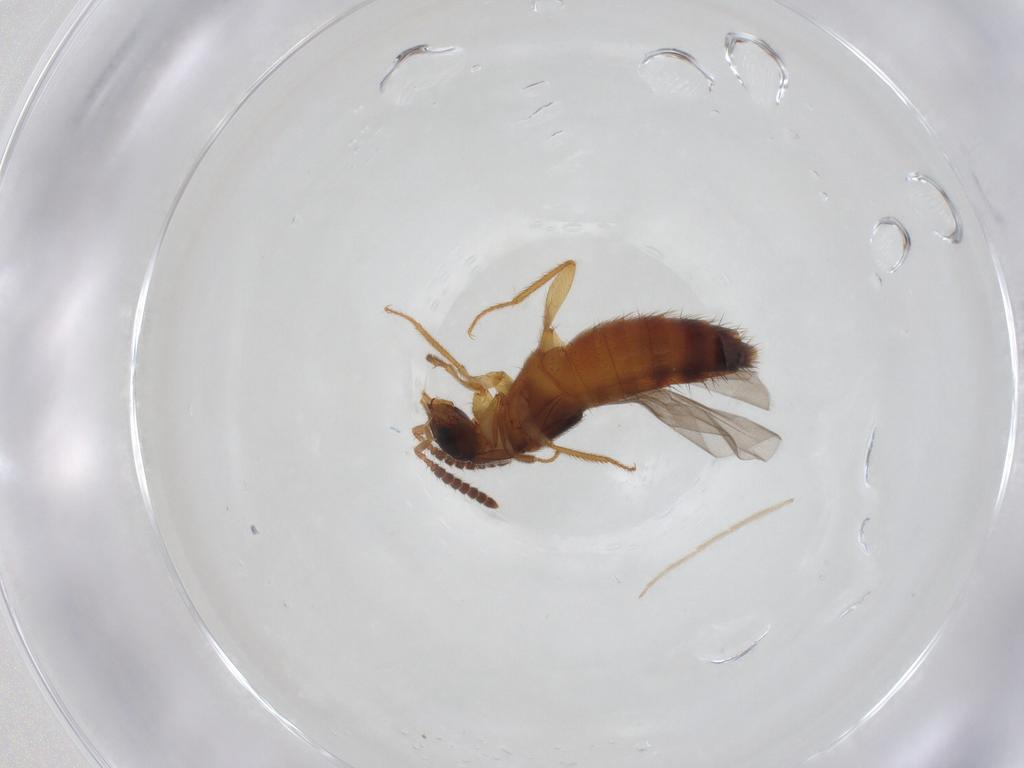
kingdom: Animalia
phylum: Arthropoda
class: Insecta
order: Coleoptera
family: Staphylinidae
